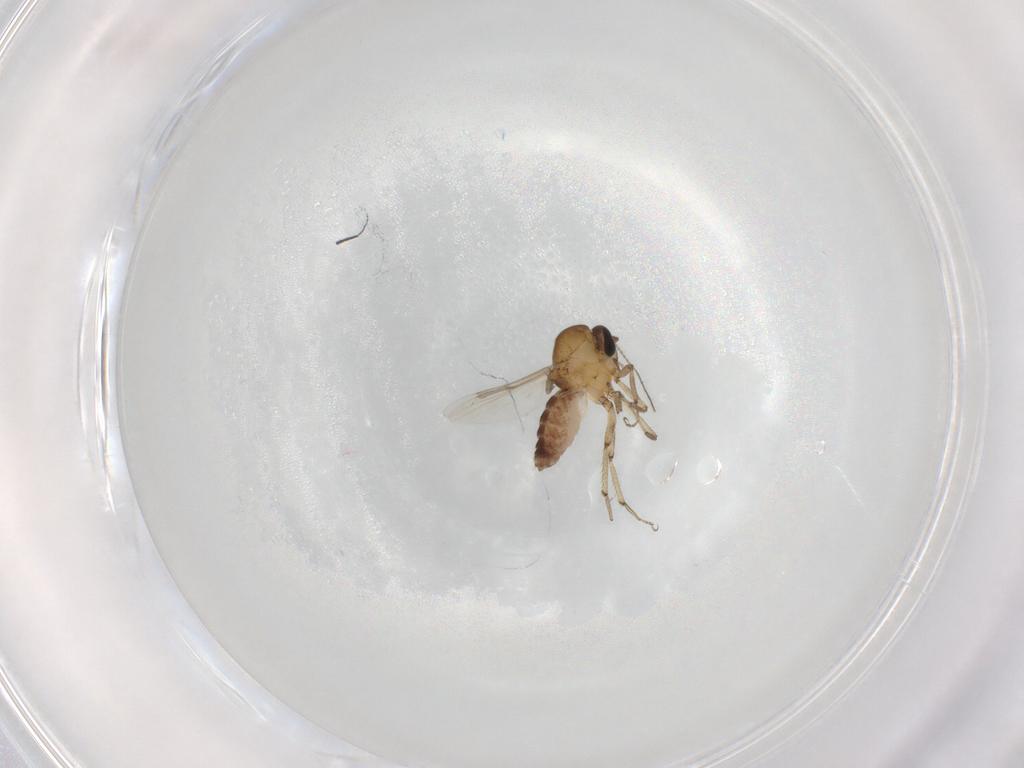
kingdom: Animalia
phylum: Arthropoda
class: Insecta
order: Diptera
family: Ceratopogonidae
